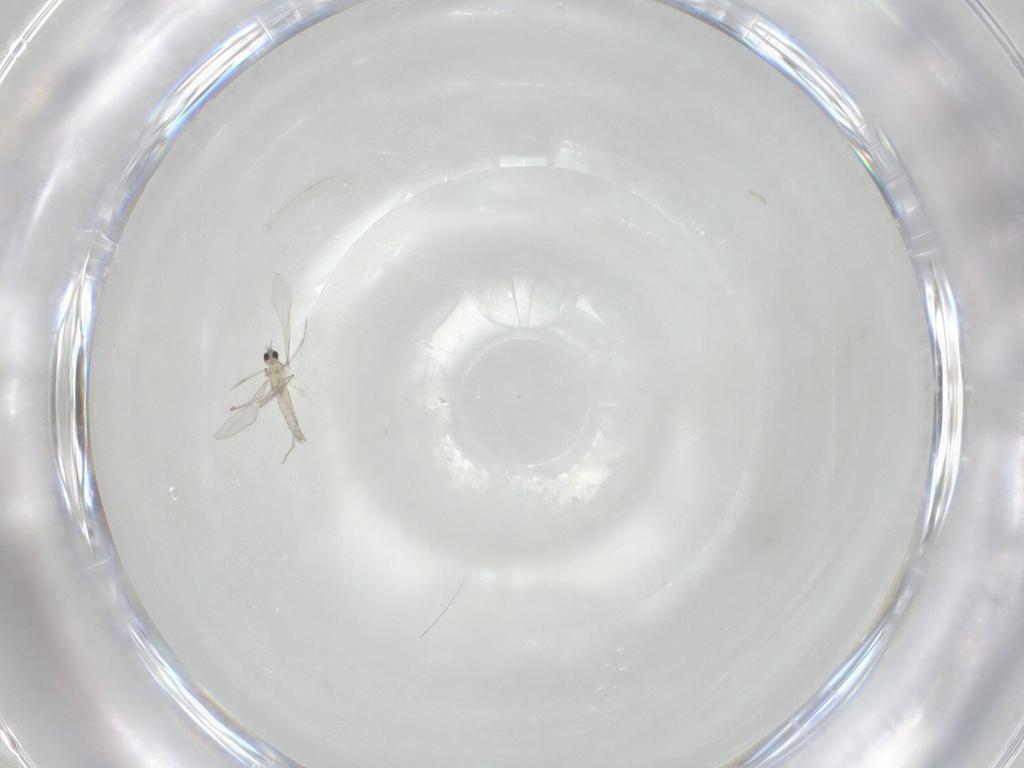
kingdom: Animalia
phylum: Arthropoda
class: Insecta
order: Diptera
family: Cecidomyiidae
